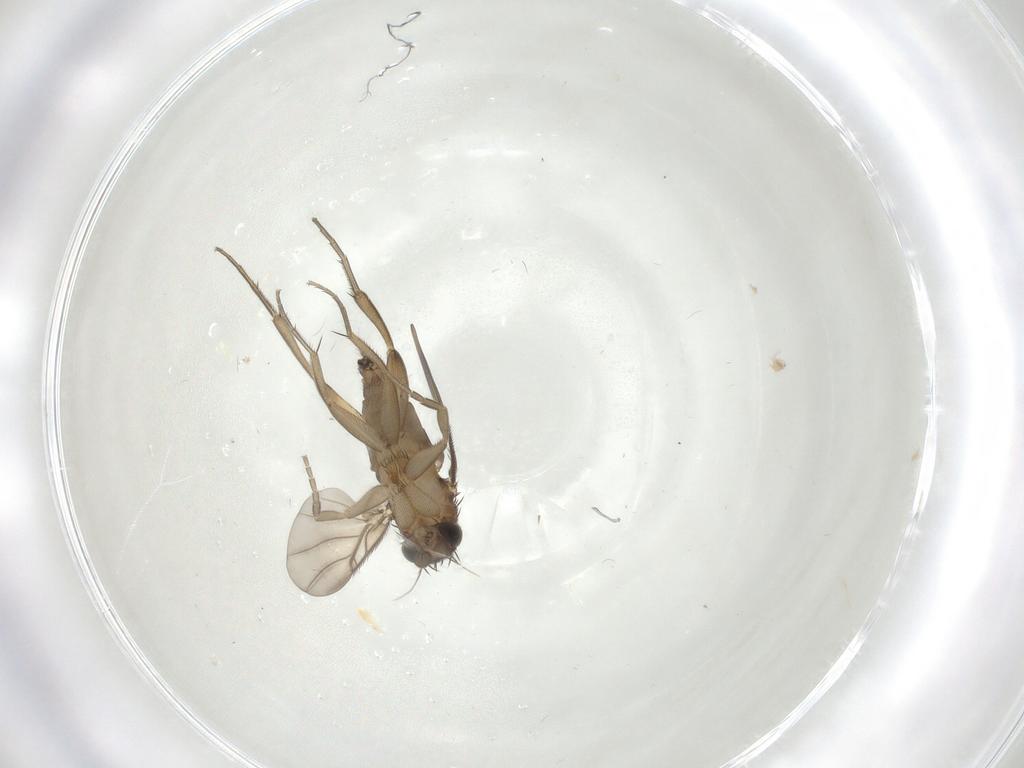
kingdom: Animalia
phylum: Arthropoda
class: Insecta
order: Diptera
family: Phoridae
